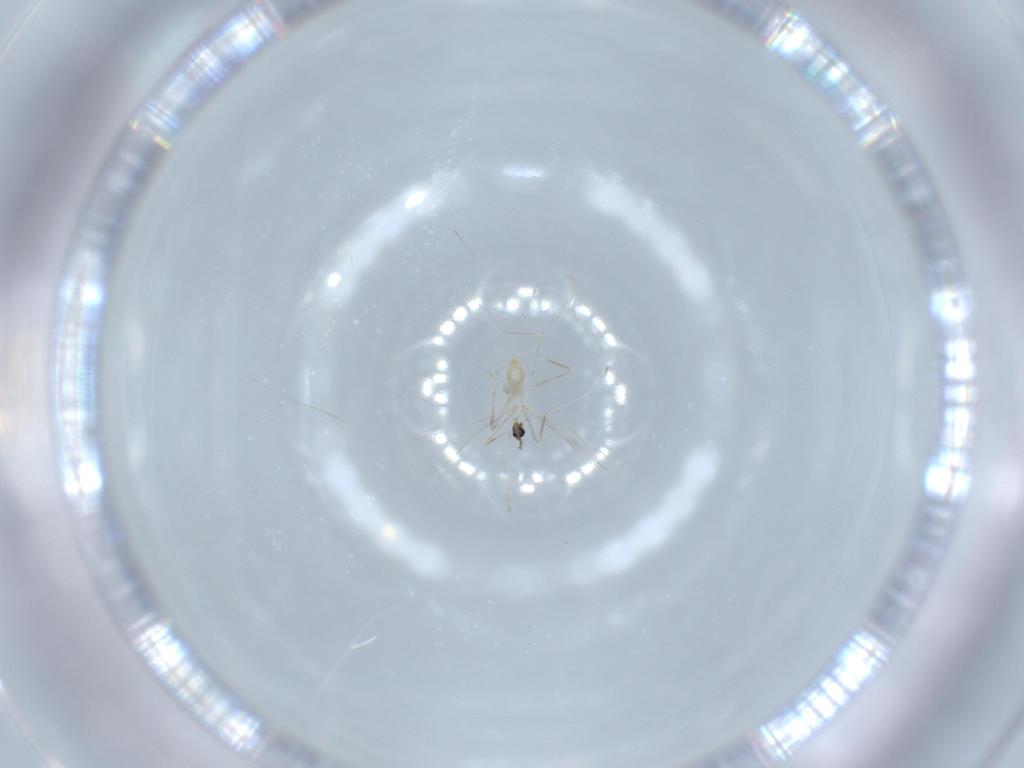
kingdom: Animalia
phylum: Arthropoda
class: Insecta
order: Diptera
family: Cecidomyiidae
